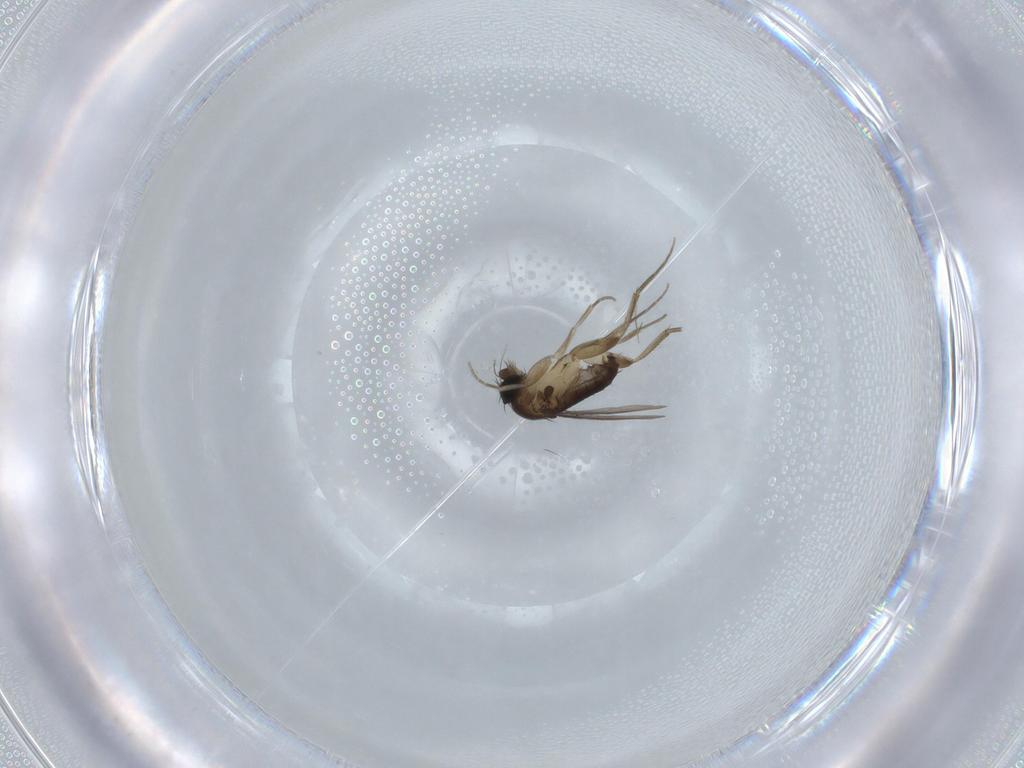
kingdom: Animalia
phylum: Arthropoda
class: Insecta
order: Diptera
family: Phoridae
